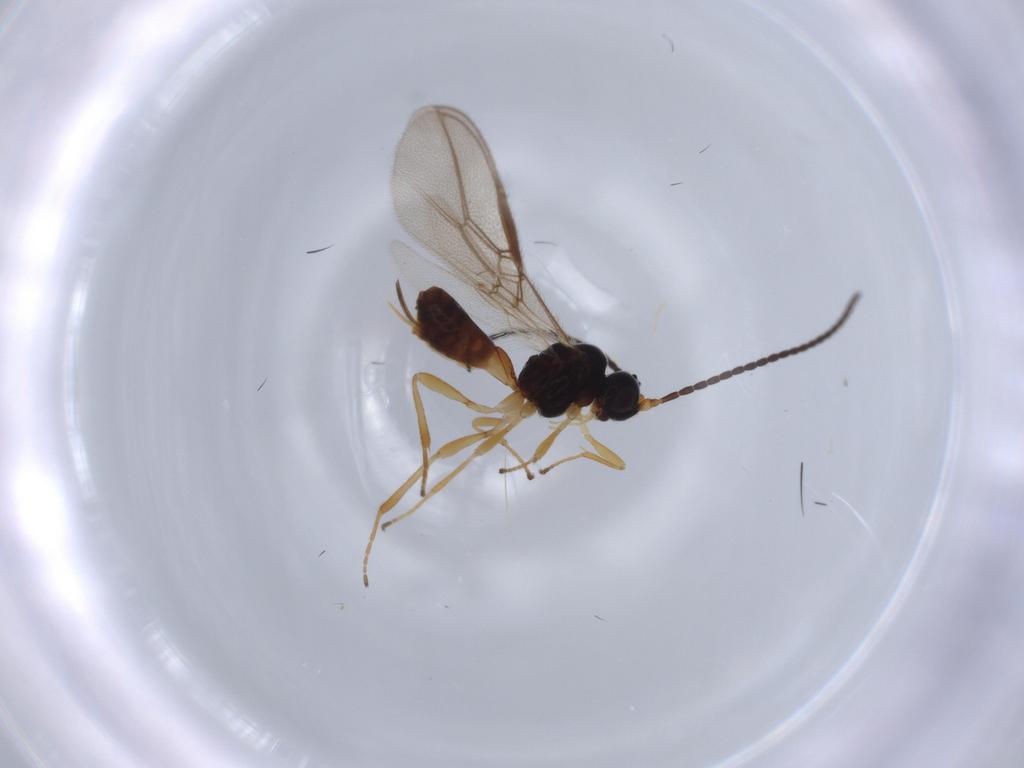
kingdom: Animalia
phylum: Arthropoda
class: Insecta
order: Hymenoptera
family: Braconidae
